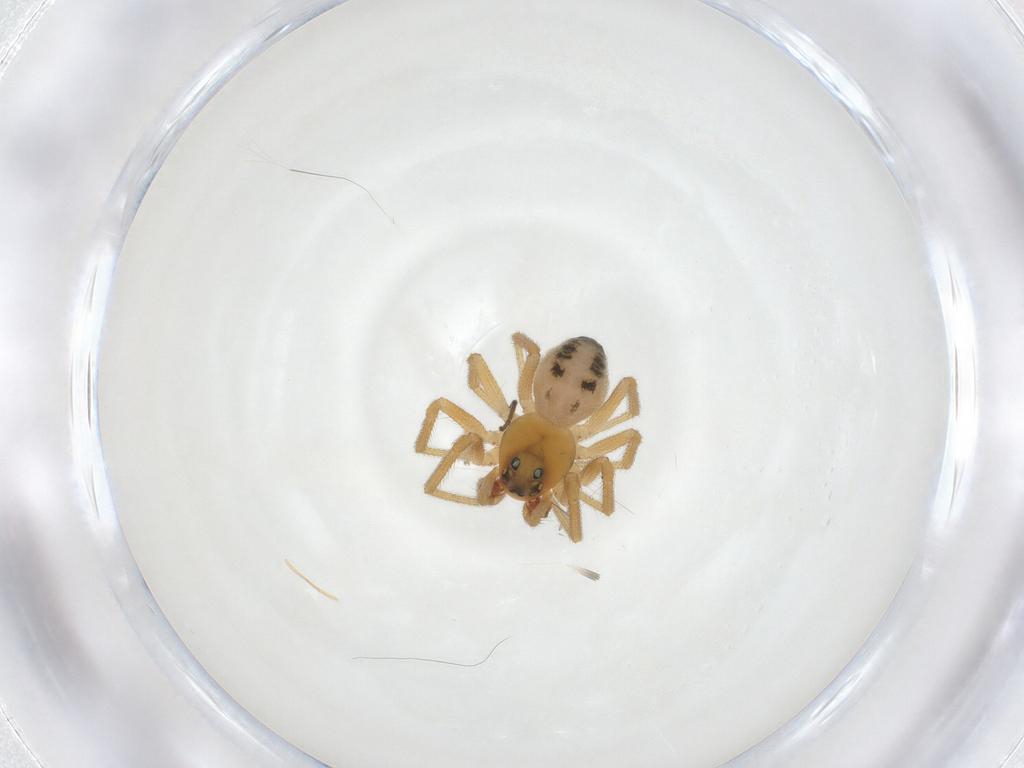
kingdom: Animalia
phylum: Arthropoda
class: Arachnida
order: Araneae
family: Linyphiidae
